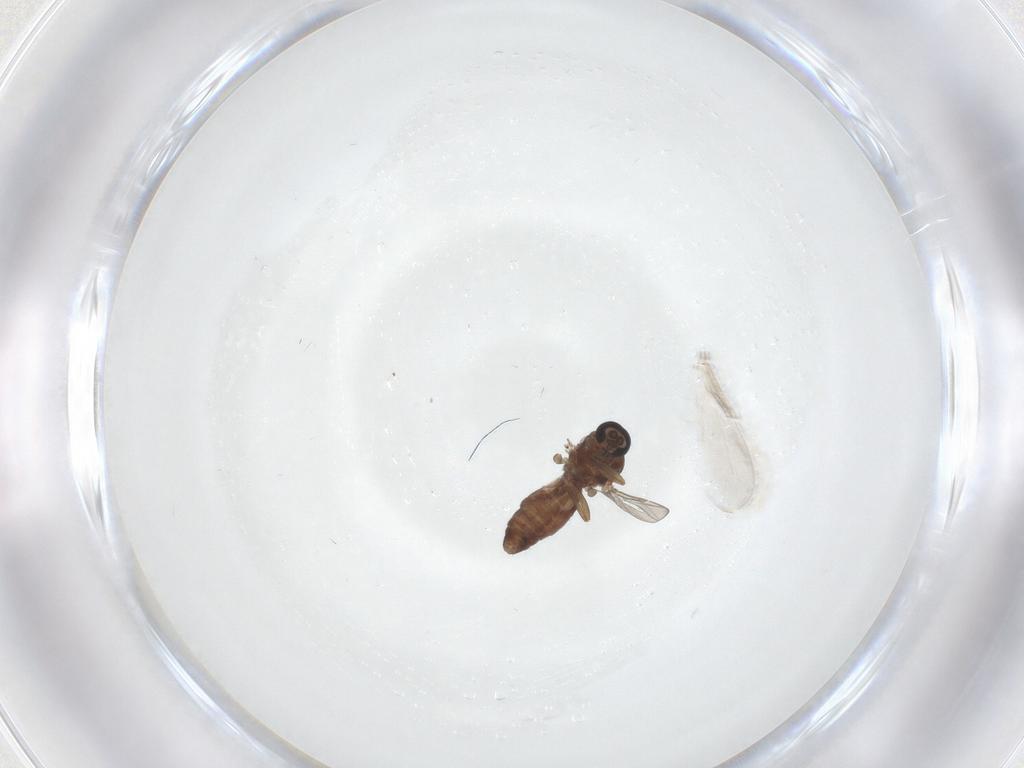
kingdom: Animalia
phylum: Arthropoda
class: Insecta
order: Diptera
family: Ceratopogonidae
